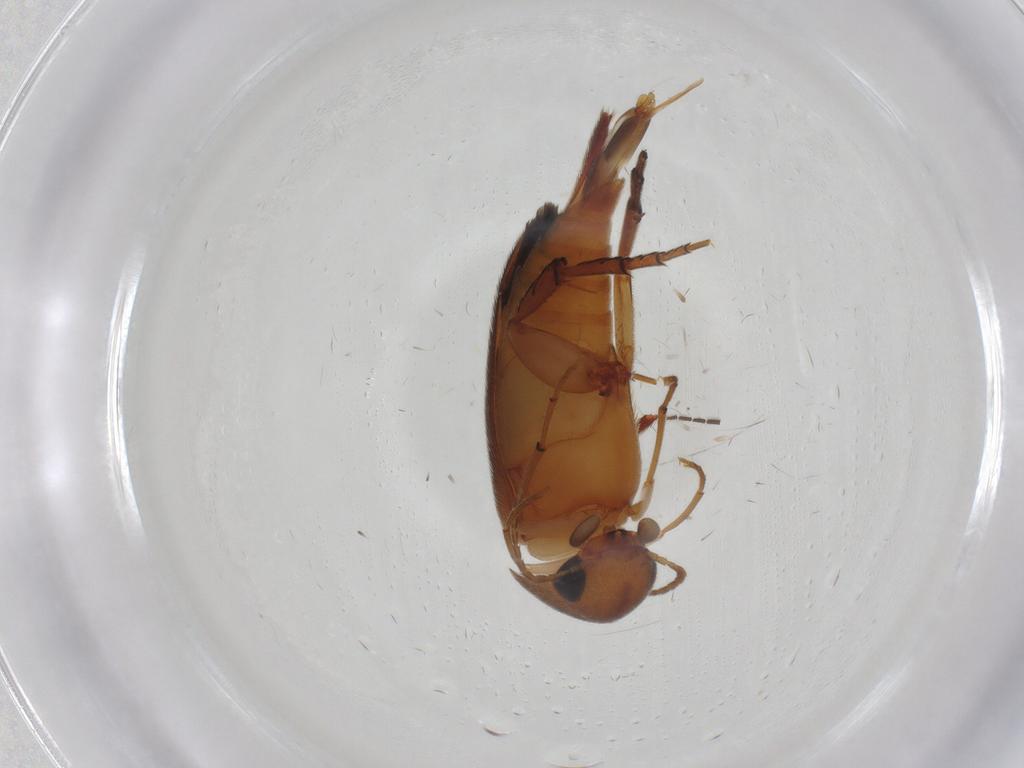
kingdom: Animalia
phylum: Arthropoda
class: Insecta
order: Coleoptera
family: Mordellidae
